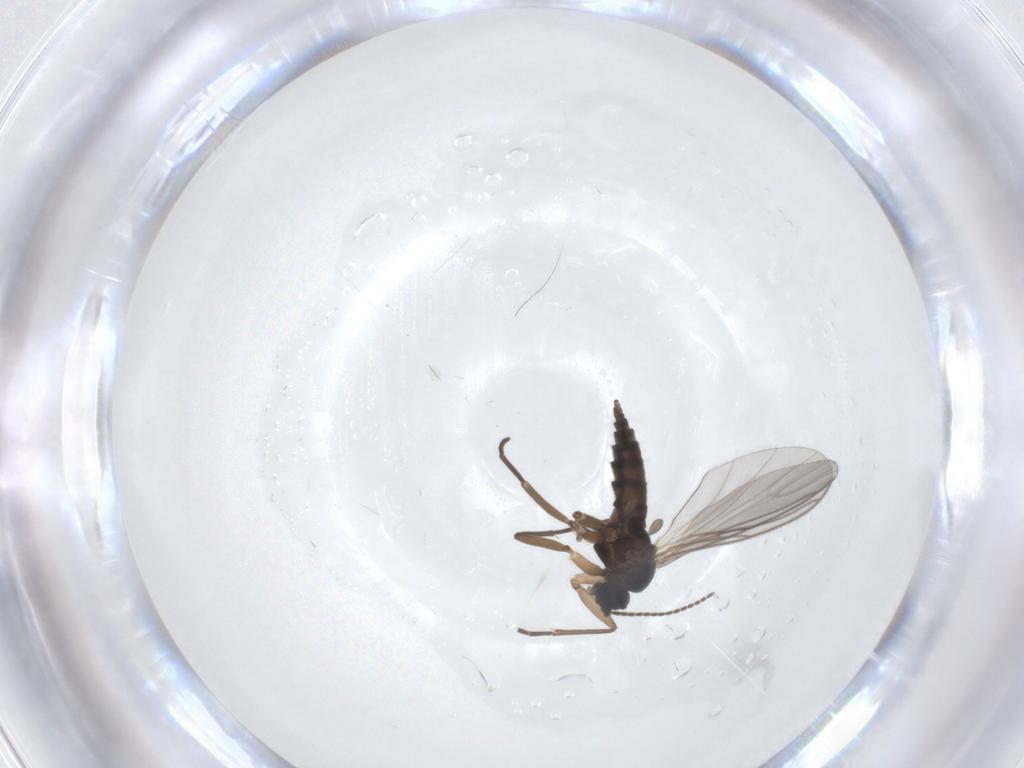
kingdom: Animalia
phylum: Arthropoda
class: Insecta
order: Diptera
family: Sciaridae
